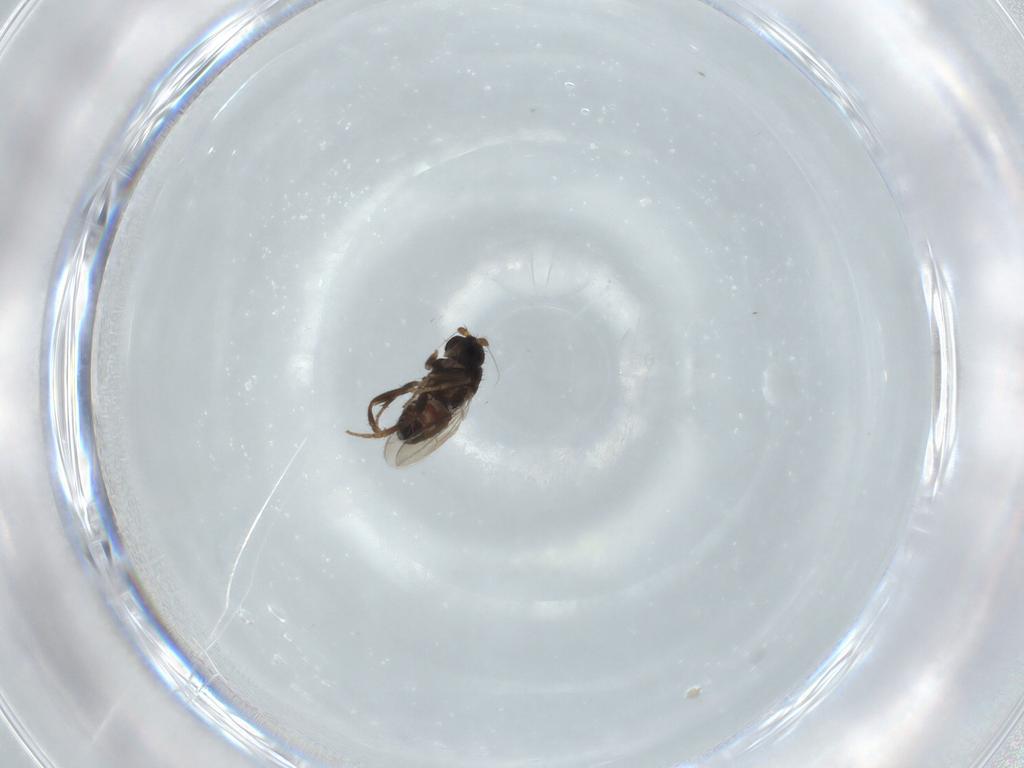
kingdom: Animalia
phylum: Arthropoda
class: Insecta
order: Diptera
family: Sphaeroceridae
